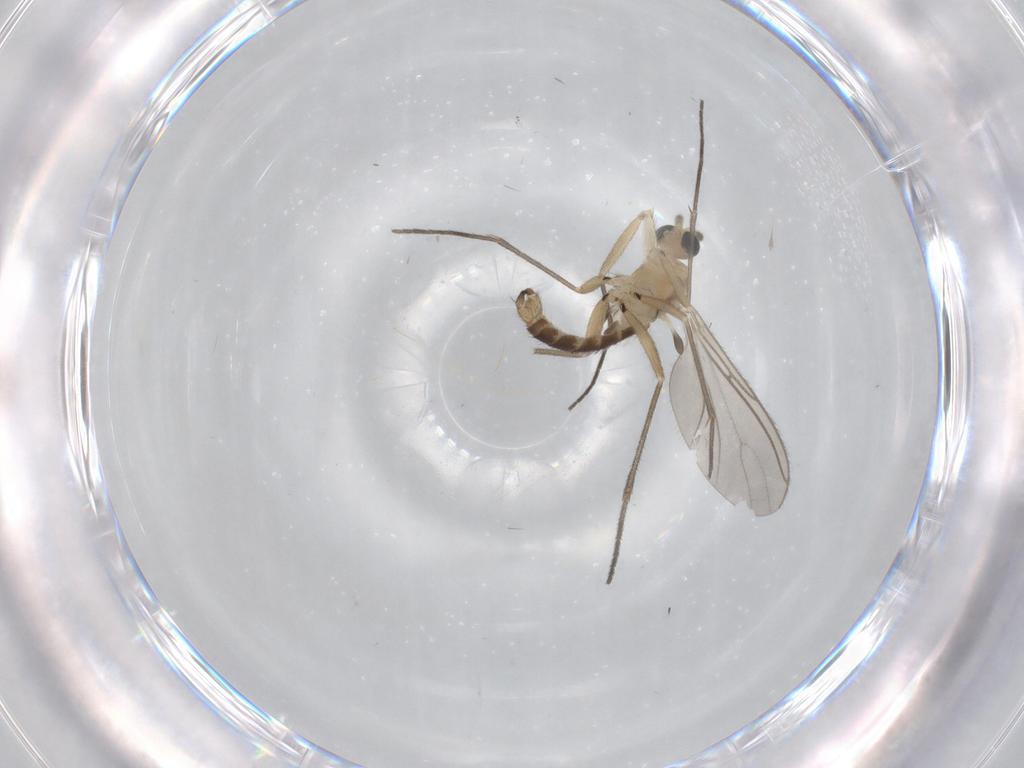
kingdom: Animalia
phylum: Arthropoda
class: Insecta
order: Diptera
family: Sciaridae
